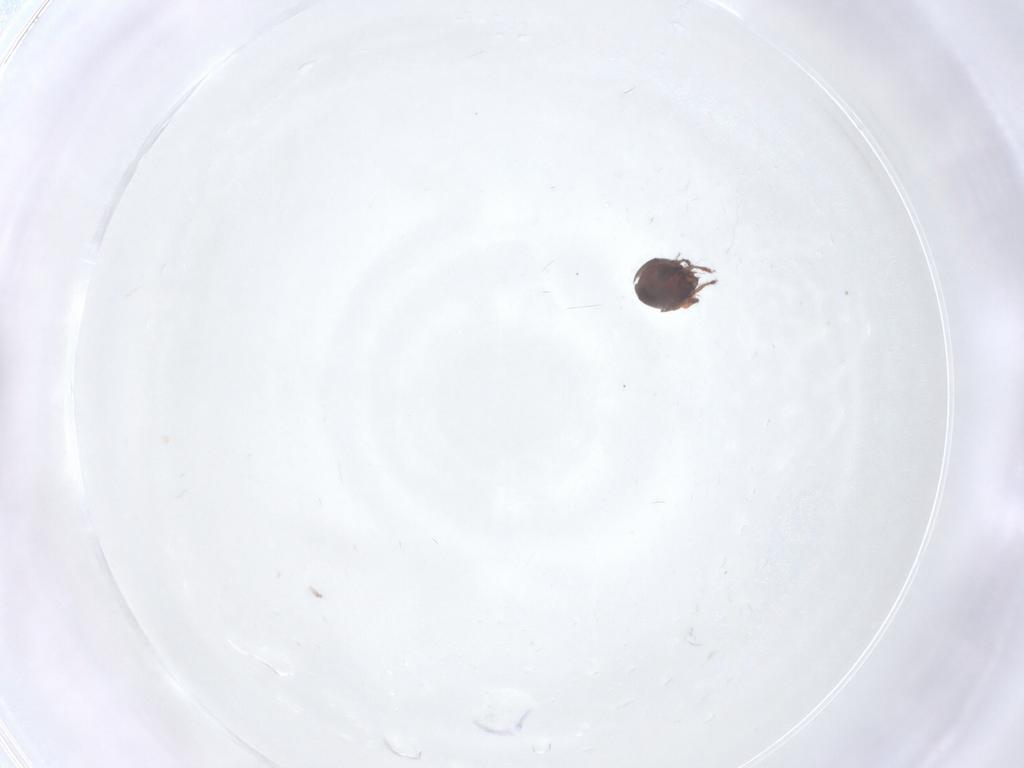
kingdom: Animalia
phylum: Arthropoda
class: Arachnida
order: Sarcoptiformes
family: Ceratozetidae
